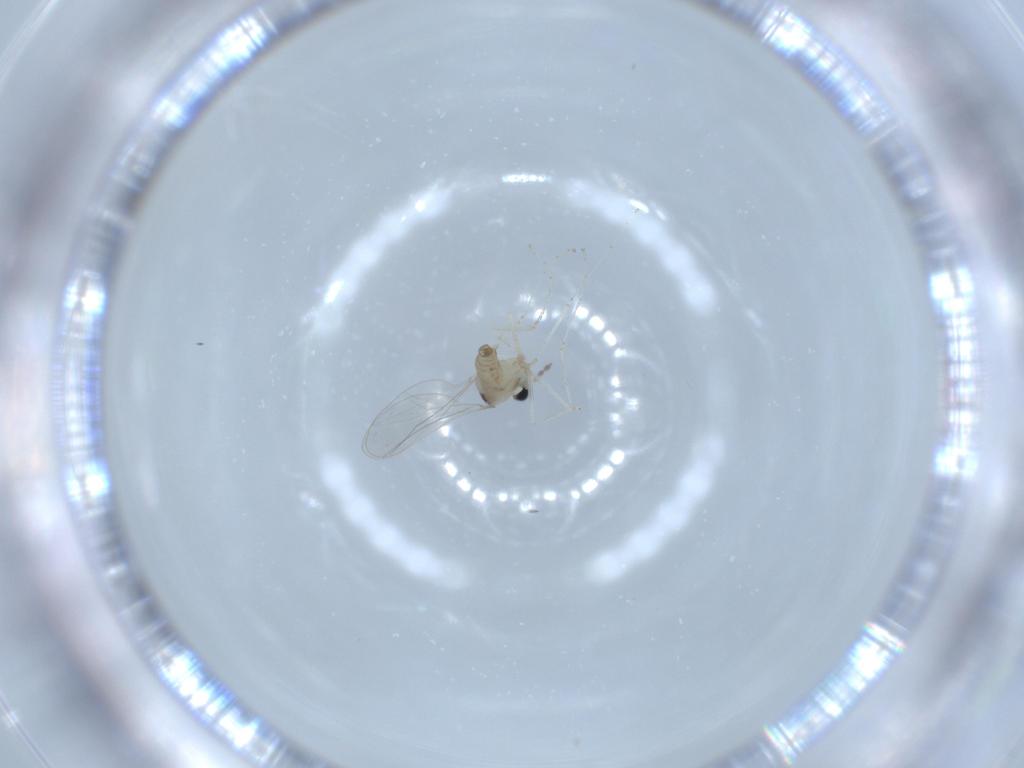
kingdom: Animalia
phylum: Arthropoda
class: Insecta
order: Diptera
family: Cecidomyiidae
